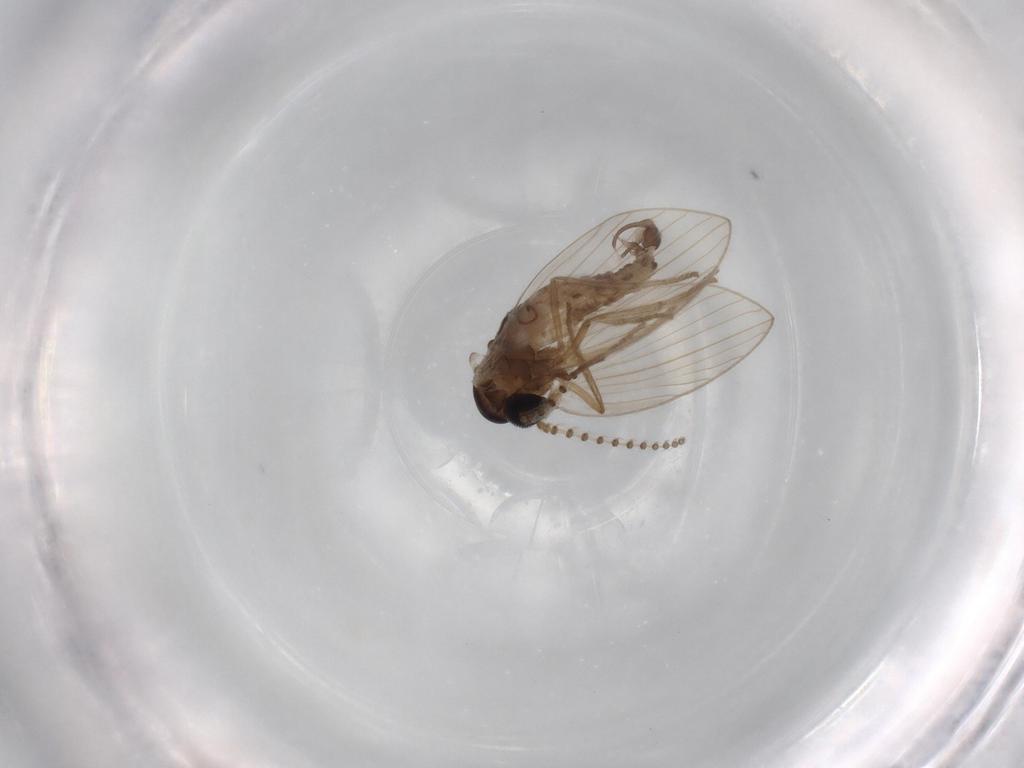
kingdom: Animalia
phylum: Arthropoda
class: Insecta
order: Diptera
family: Psychodidae
